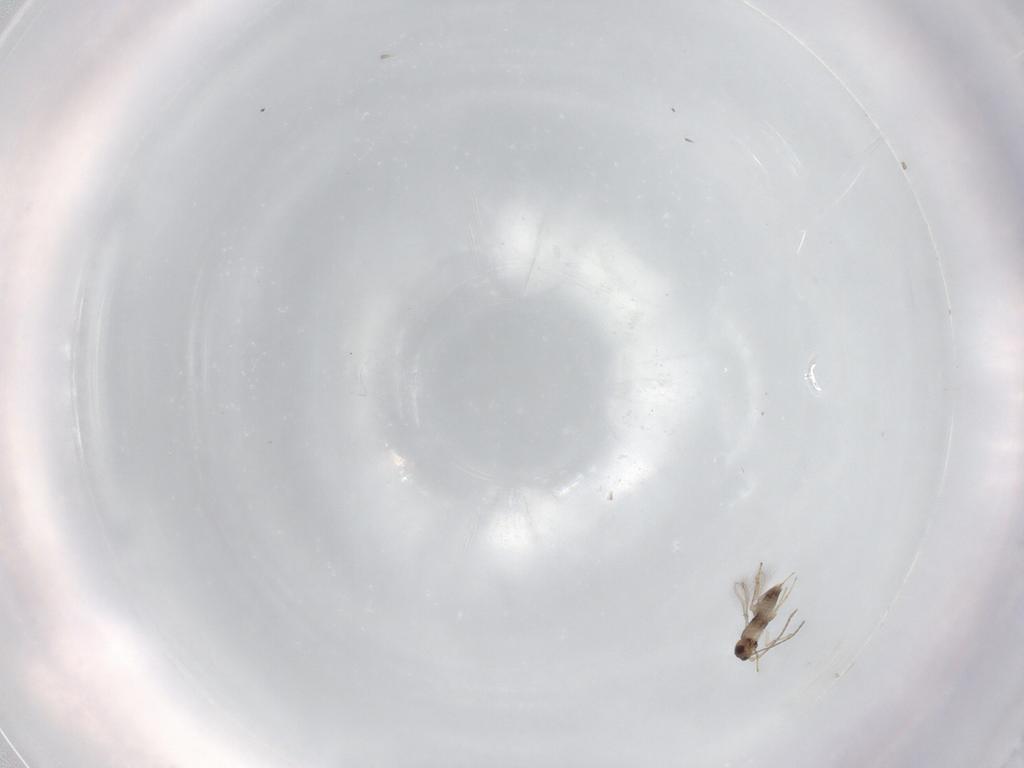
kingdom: Animalia
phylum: Arthropoda
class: Insecta
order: Hymenoptera
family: Mymaridae
